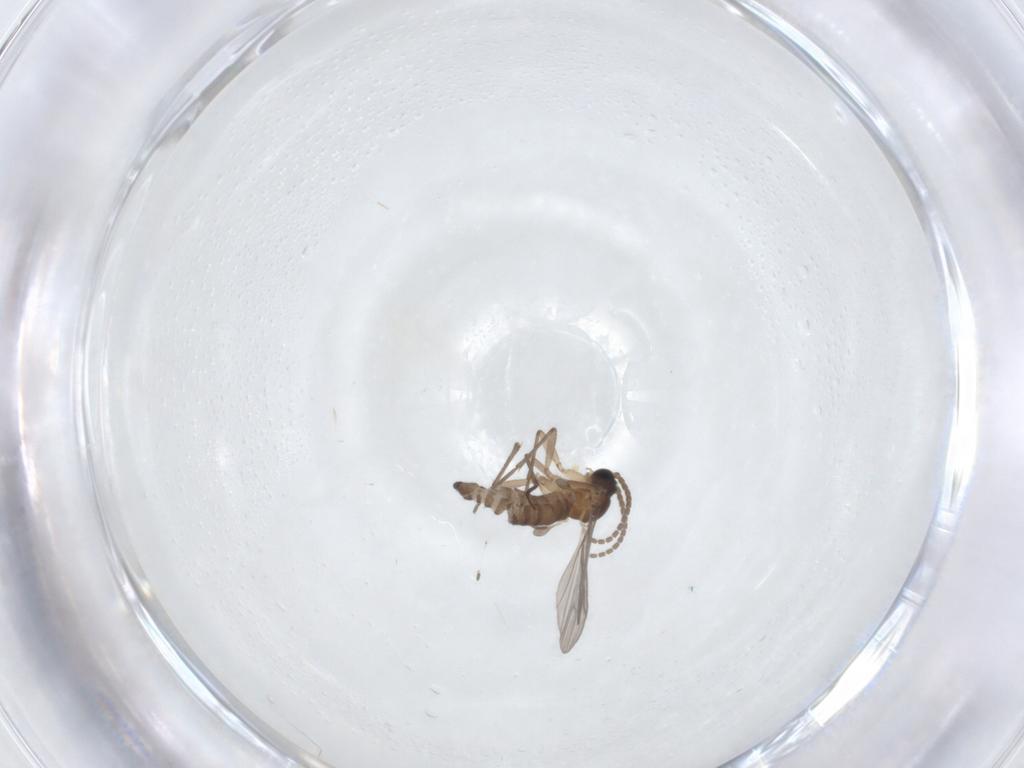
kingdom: Animalia
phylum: Arthropoda
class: Insecta
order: Diptera
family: Sciaridae
